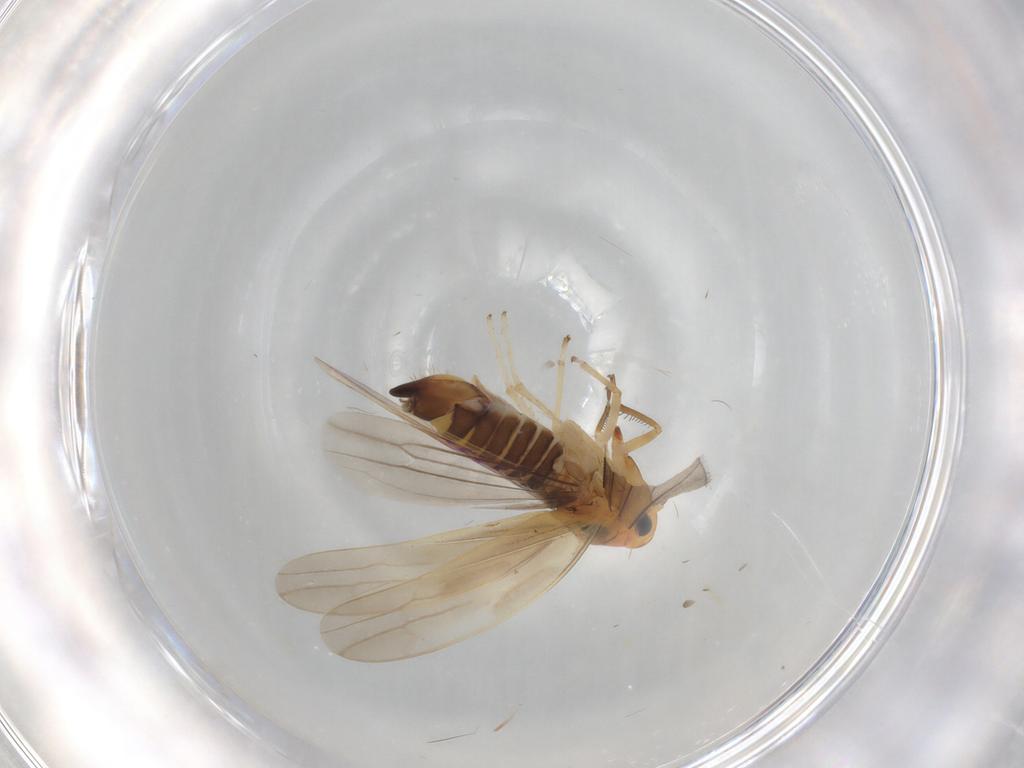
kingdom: Animalia
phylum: Arthropoda
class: Insecta
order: Hemiptera
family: Cicadellidae
